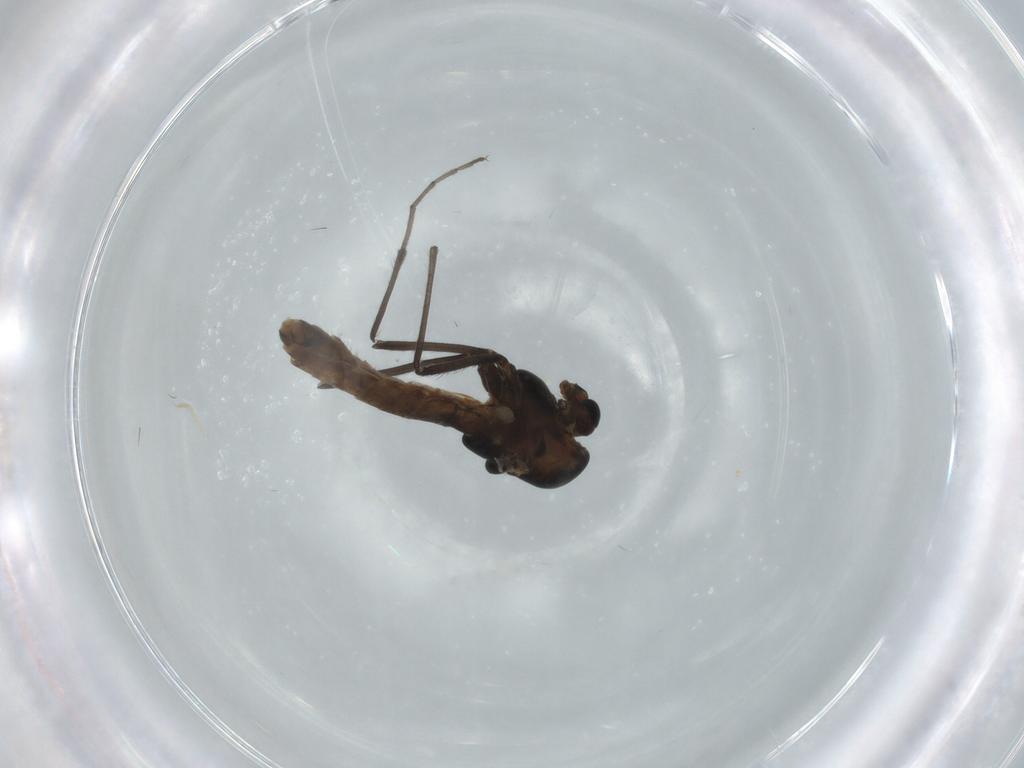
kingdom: Animalia
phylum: Arthropoda
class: Insecta
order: Diptera
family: Chironomidae
